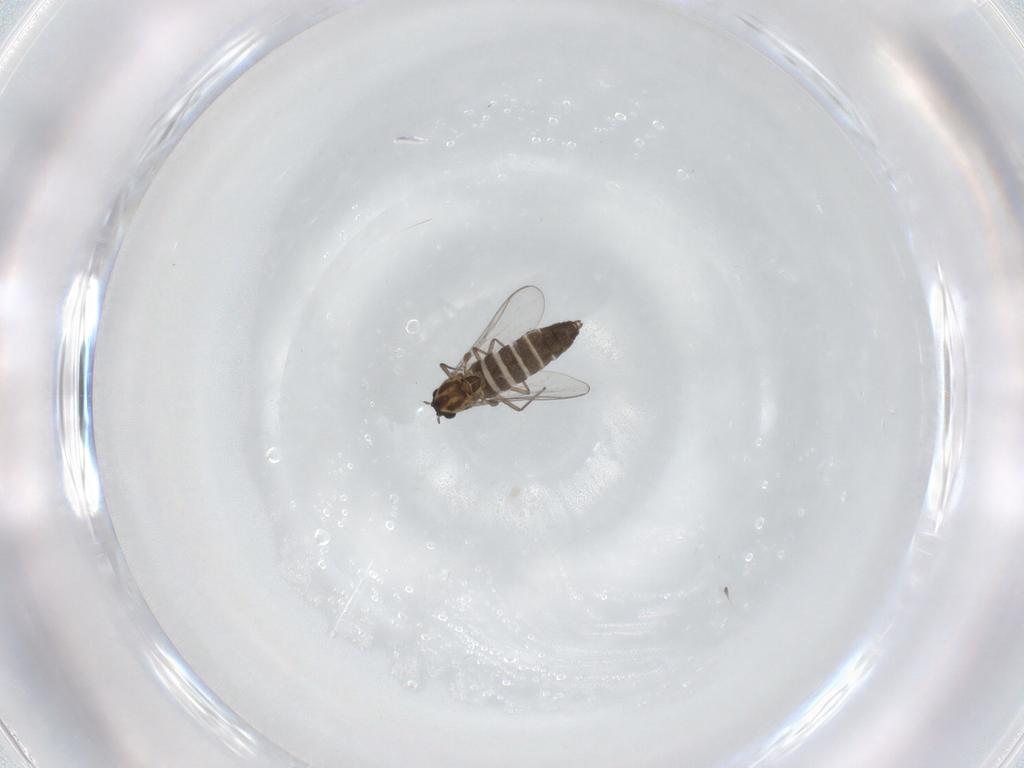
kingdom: Animalia
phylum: Arthropoda
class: Insecta
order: Diptera
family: Chironomidae
